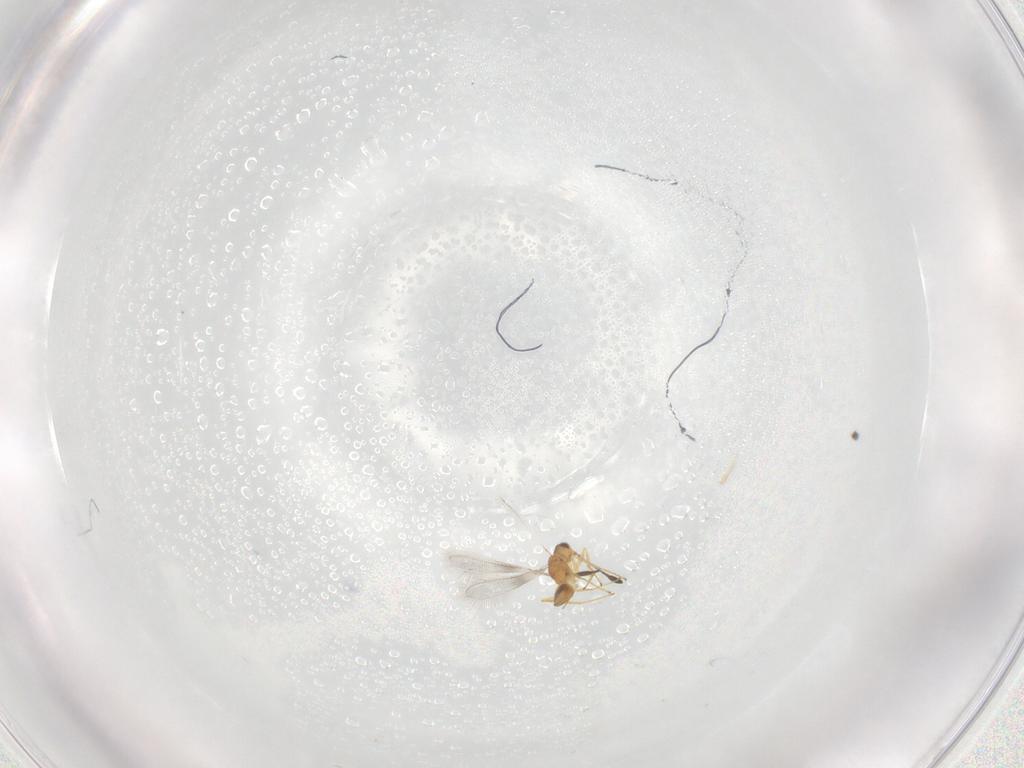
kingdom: Animalia
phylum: Arthropoda
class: Insecta
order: Hymenoptera
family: Mymaridae
